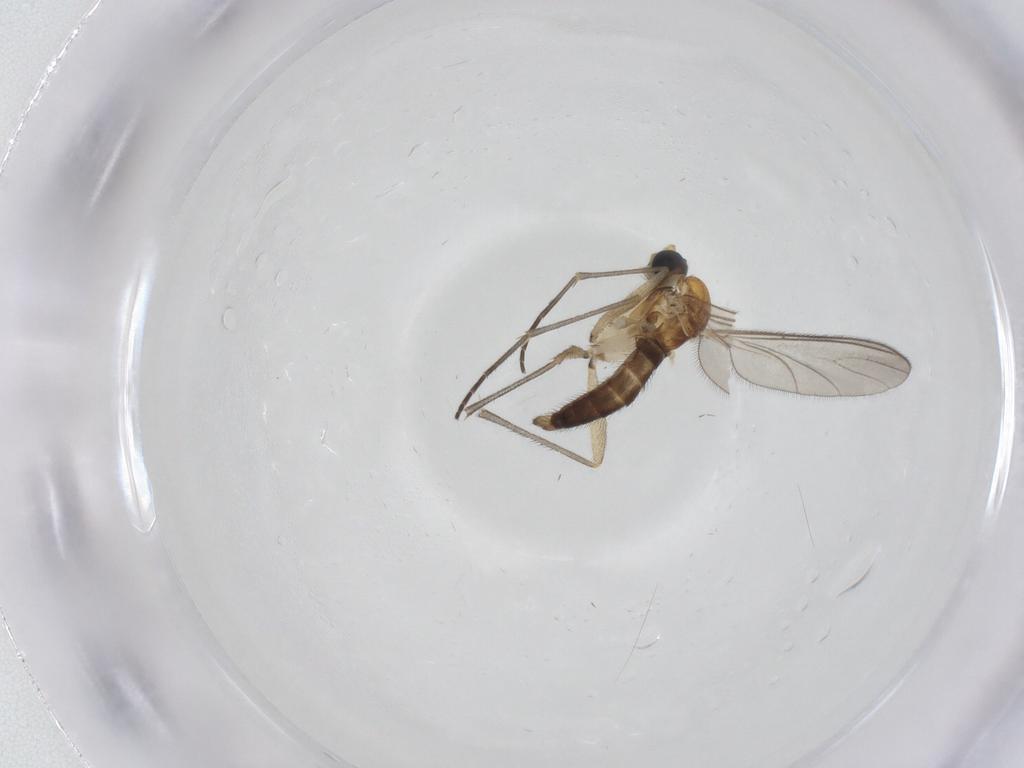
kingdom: Animalia
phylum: Arthropoda
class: Insecta
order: Diptera
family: Sciaridae
